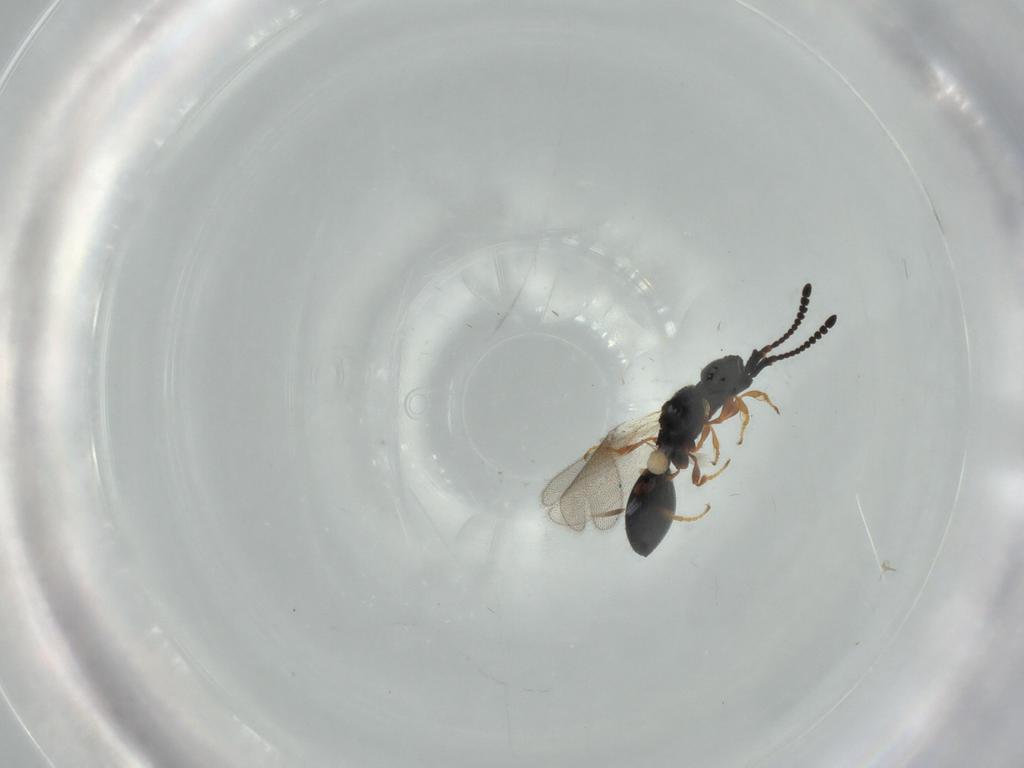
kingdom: Animalia
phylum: Arthropoda
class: Insecta
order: Hymenoptera
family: Diapriidae
